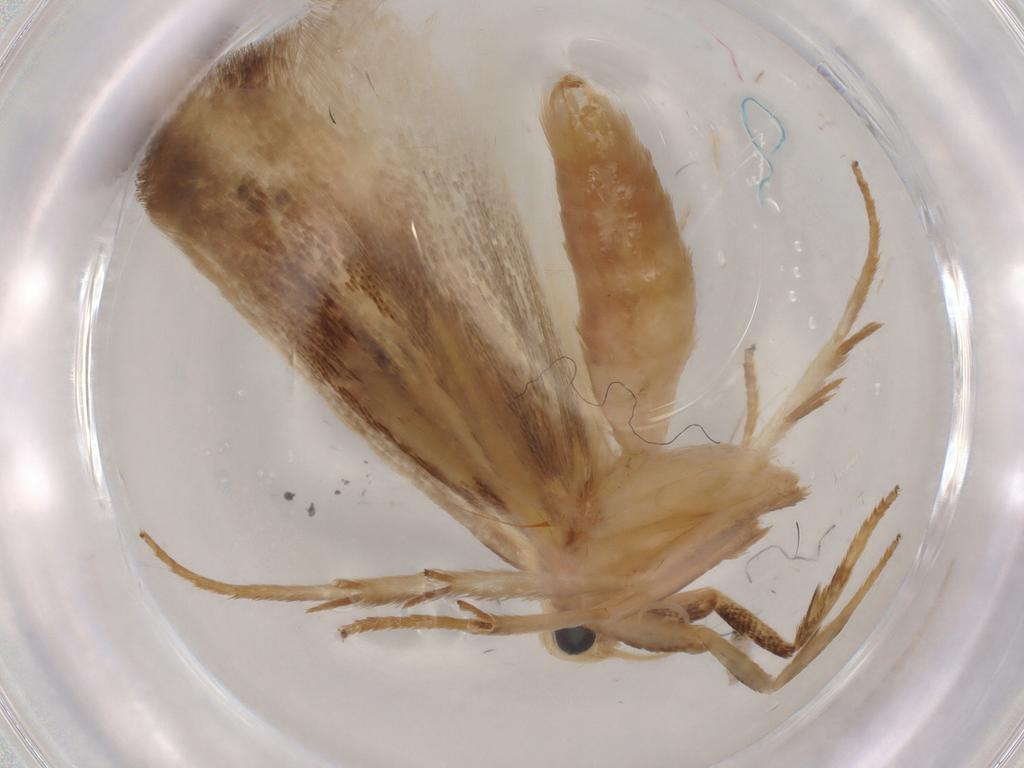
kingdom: Animalia
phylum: Arthropoda
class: Insecta
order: Lepidoptera
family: Geometridae
